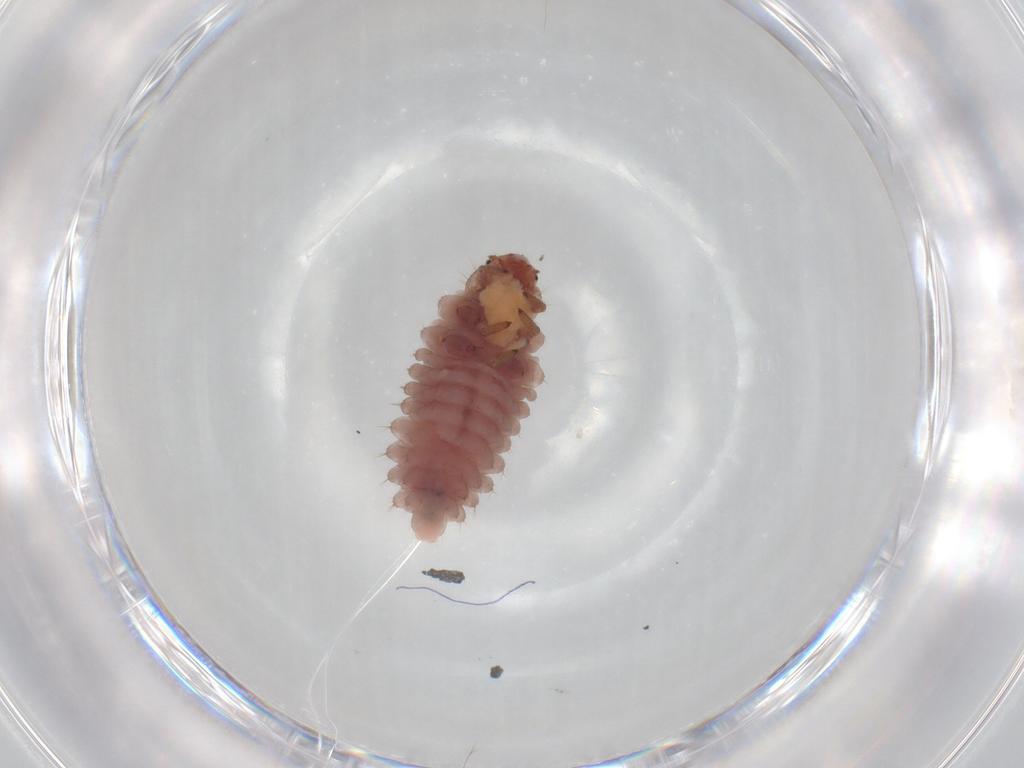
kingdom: Animalia
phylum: Arthropoda
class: Insecta
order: Coleoptera
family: Coccinellidae
